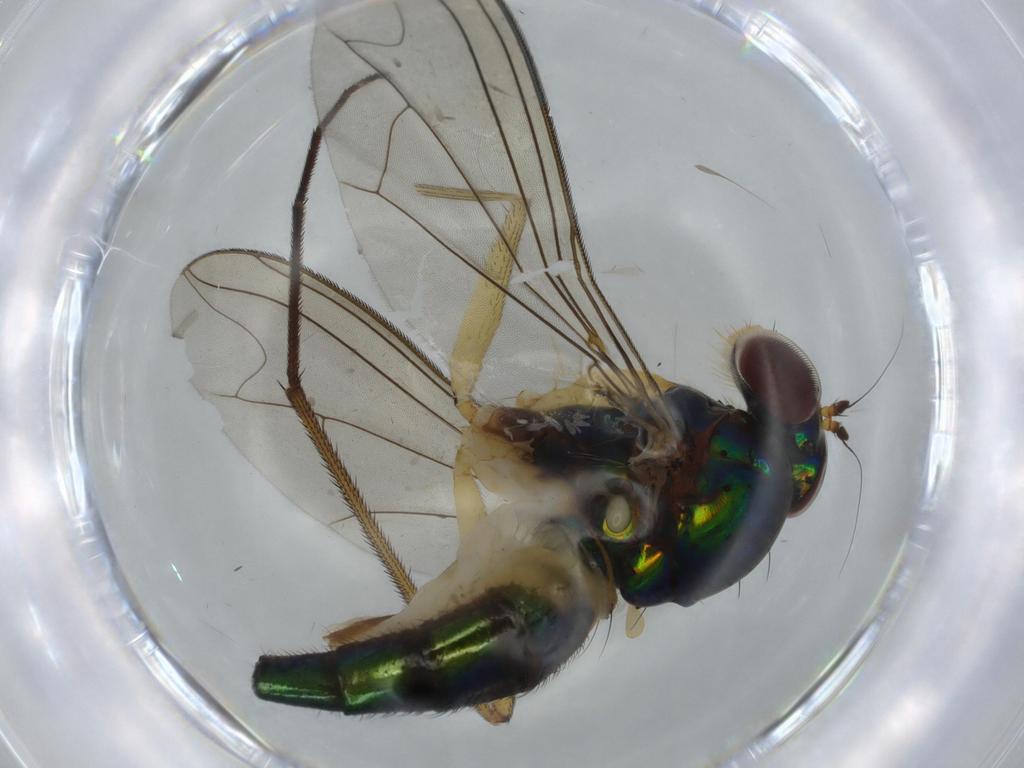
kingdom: Animalia
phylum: Arthropoda
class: Insecta
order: Diptera
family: Dolichopodidae
